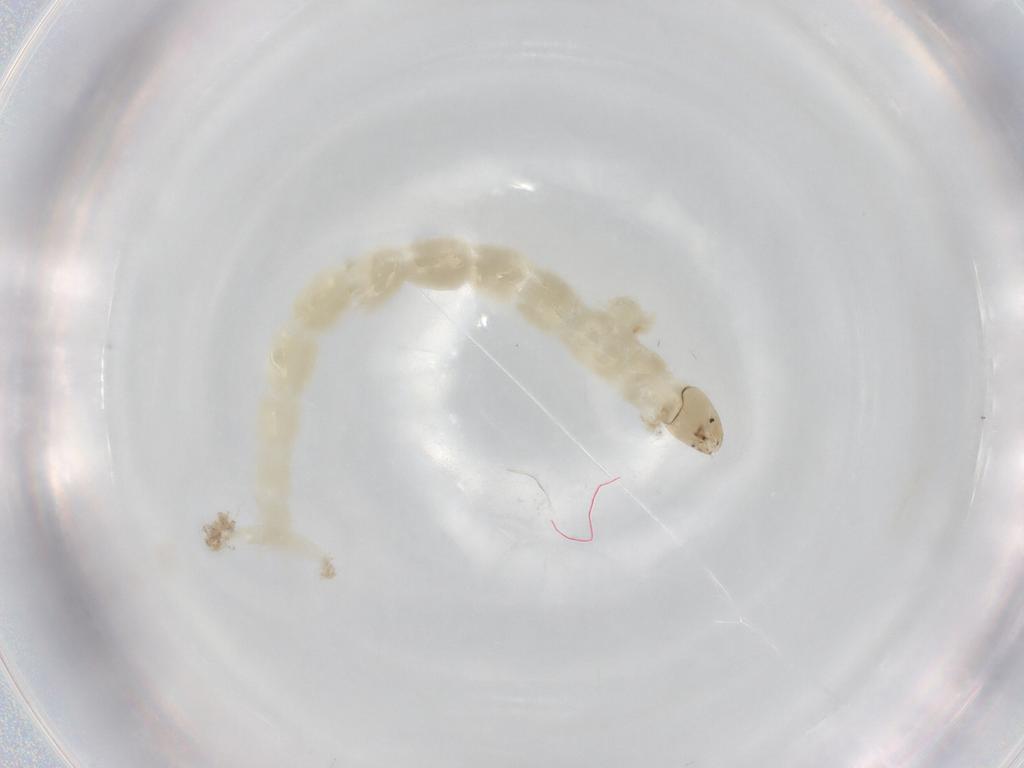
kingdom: Animalia
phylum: Arthropoda
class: Insecta
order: Diptera
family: Chironomidae
